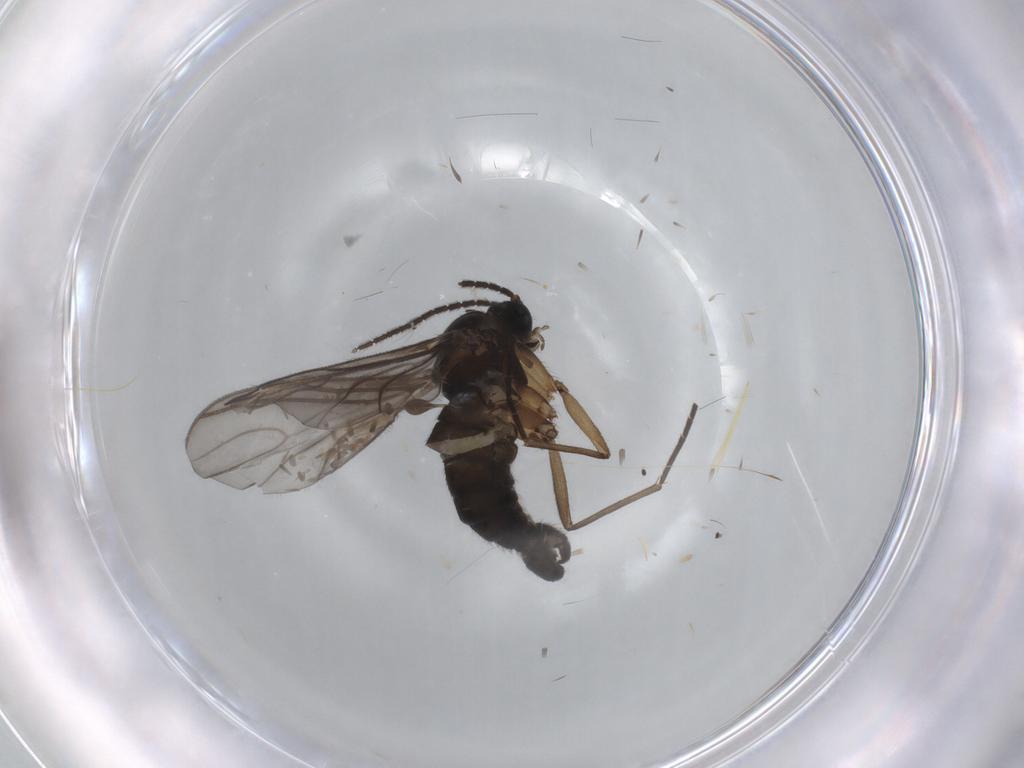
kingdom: Animalia
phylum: Arthropoda
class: Insecta
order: Diptera
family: Sciaridae
